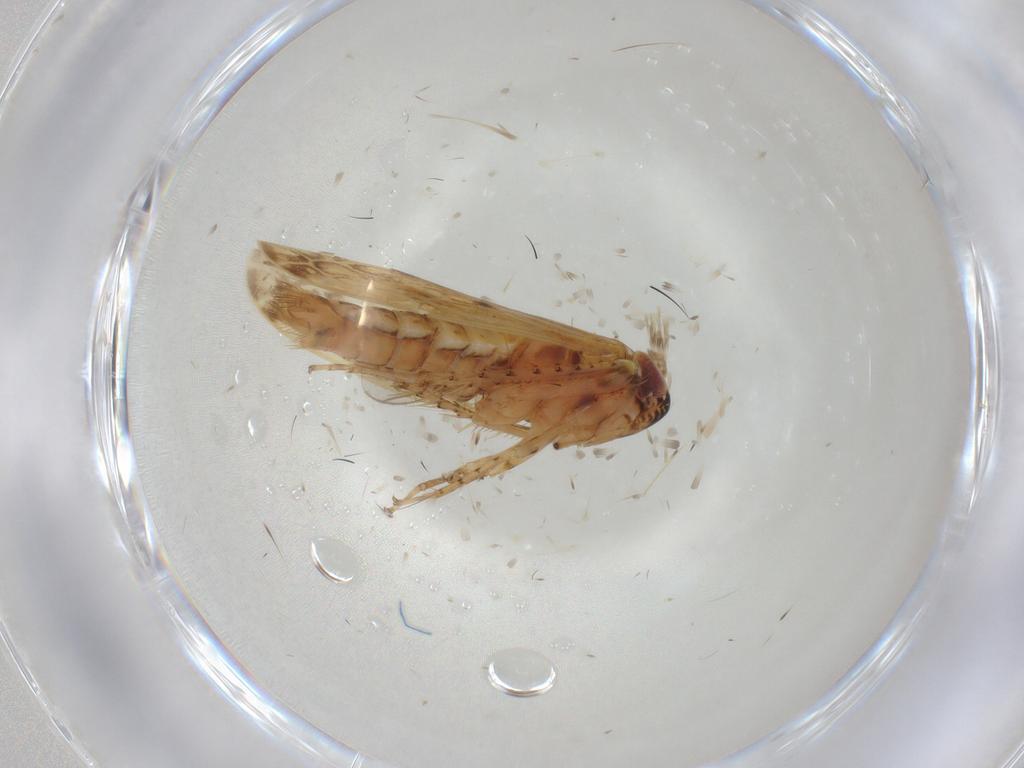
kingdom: Animalia
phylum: Arthropoda
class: Insecta
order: Hemiptera
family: Cicadellidae
